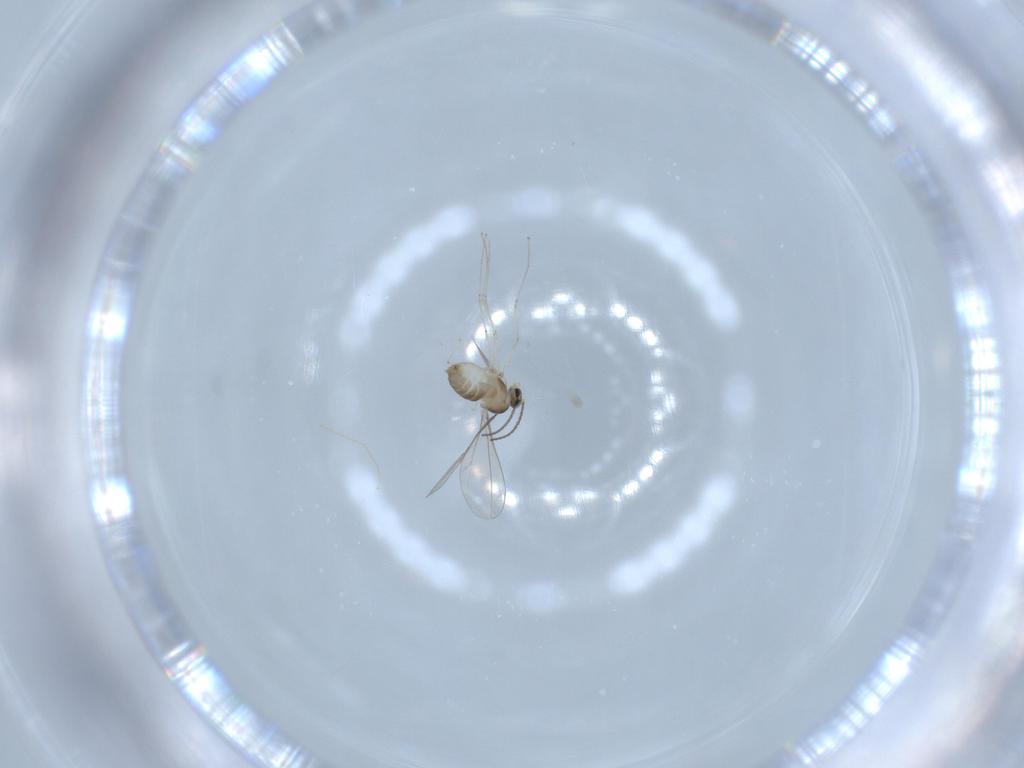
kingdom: Animalia
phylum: Arthropoda
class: Insecta
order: Diptera
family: Cecidomyiidae
